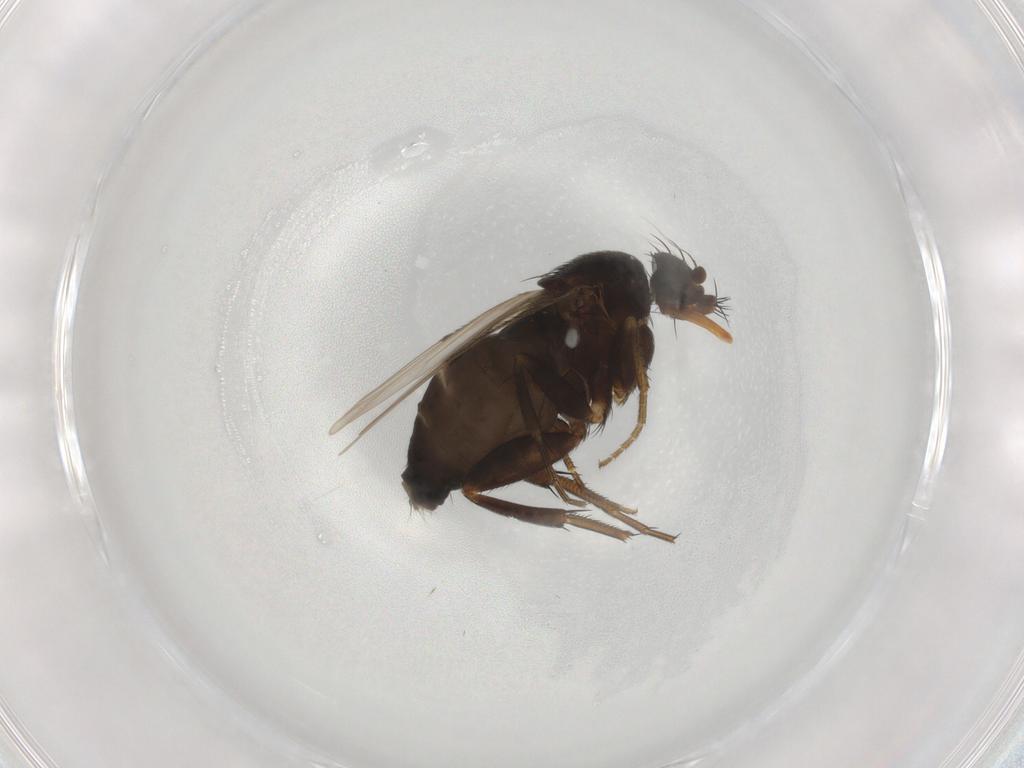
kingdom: Animalia
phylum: Arthropoda
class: Insecta
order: Diptera
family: Phoridae
